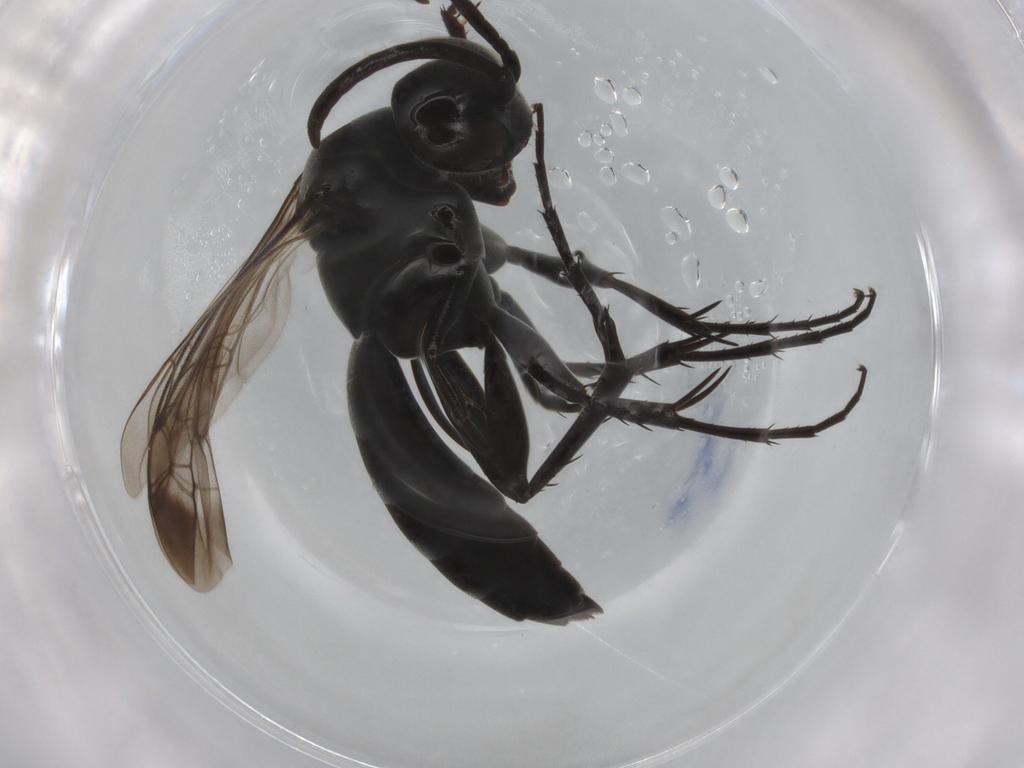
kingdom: Animalia
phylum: Arthropoda
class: Insecta
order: Hymenoptera
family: Pompilidae
